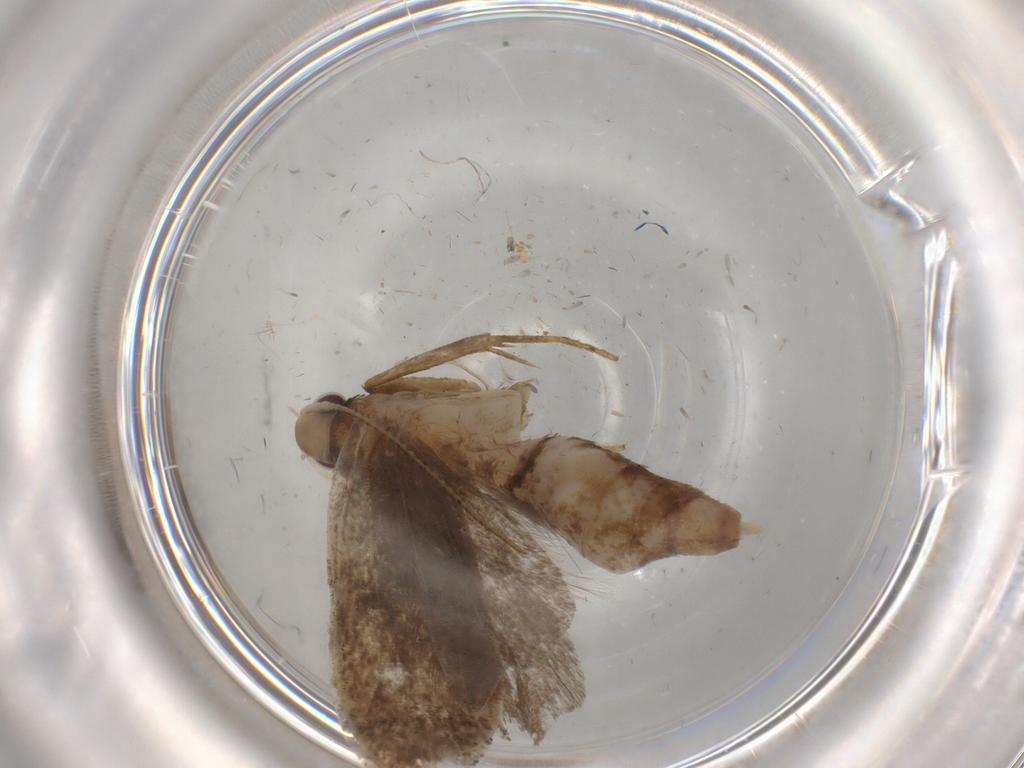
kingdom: Animalia
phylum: Arthropoda
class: Insecta
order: Lepidoptera
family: Gelechiidae
